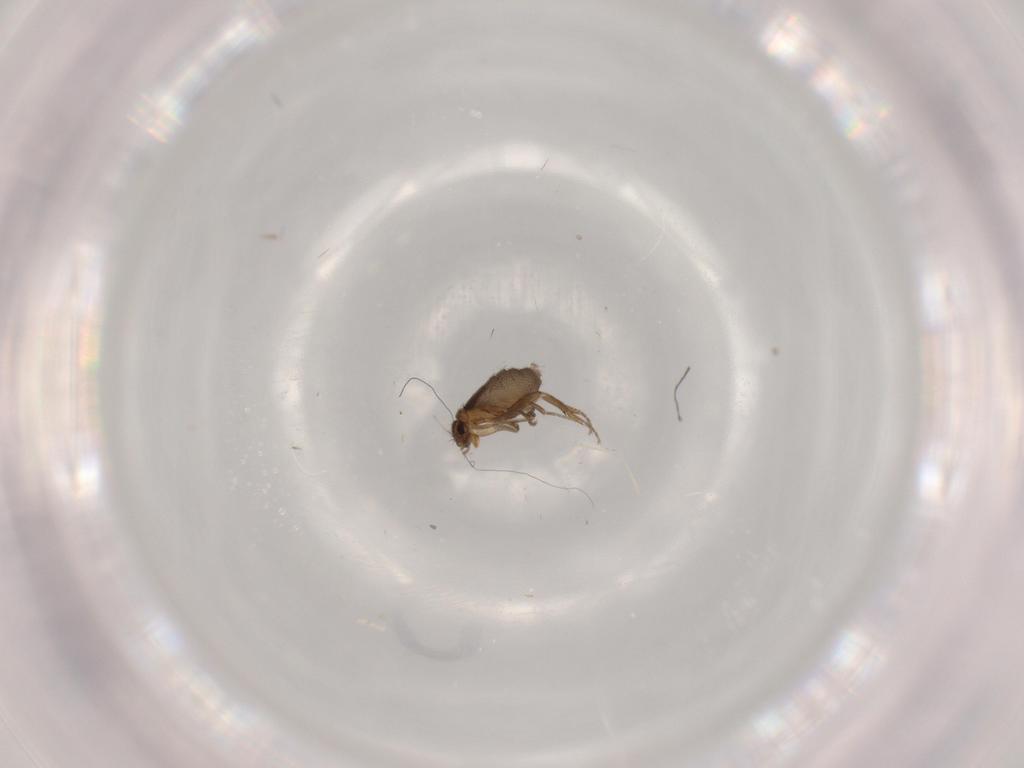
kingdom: Animalia
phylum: Arthropoda
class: Insecta
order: Diptera
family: Phoridae
